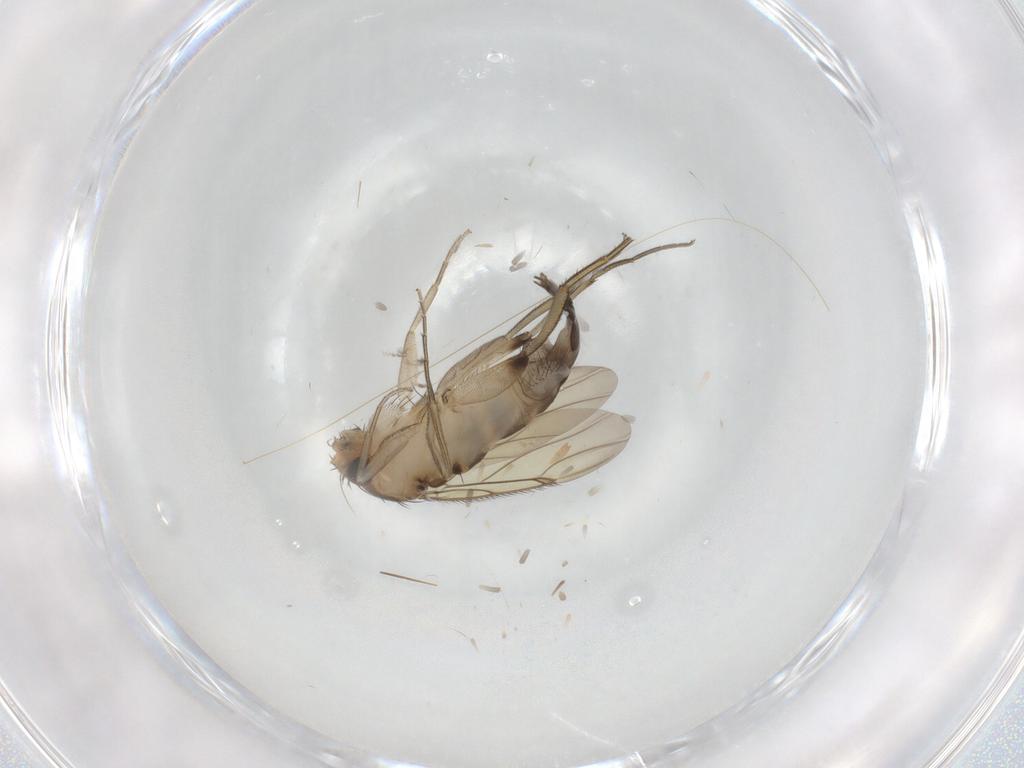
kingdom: Animalia
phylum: Arthropoda
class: Insecta
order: Diptera
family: Phoridae
